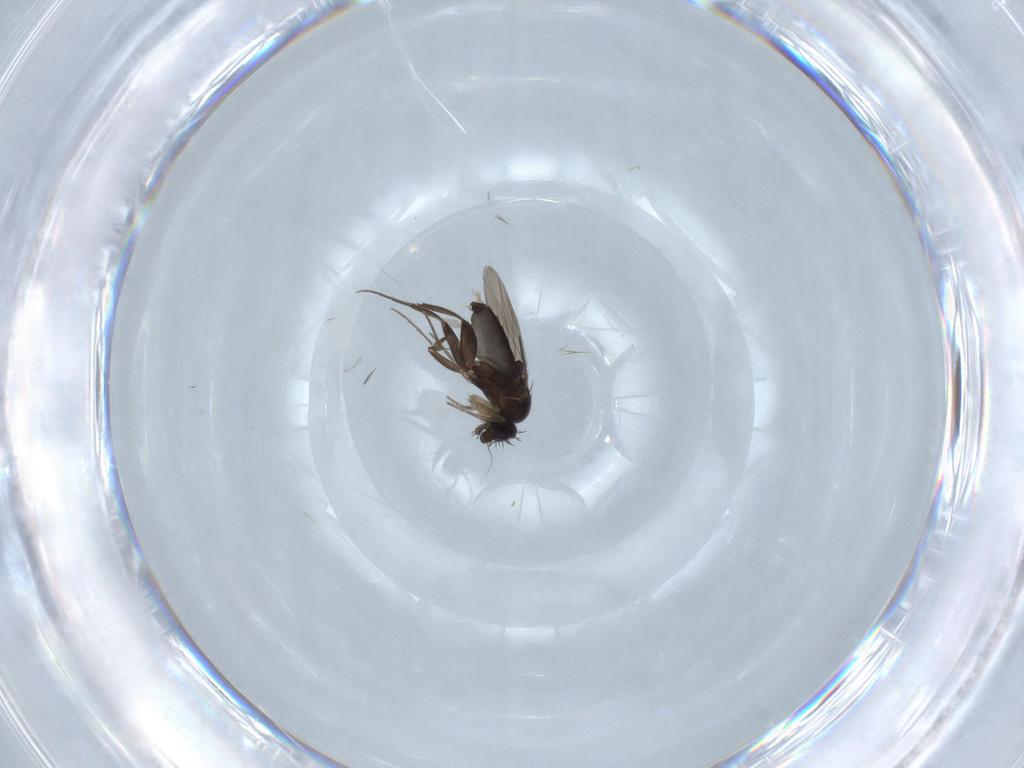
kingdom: Animalia
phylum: Arthropoda
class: Insecta
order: Diptera
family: Phoridae
